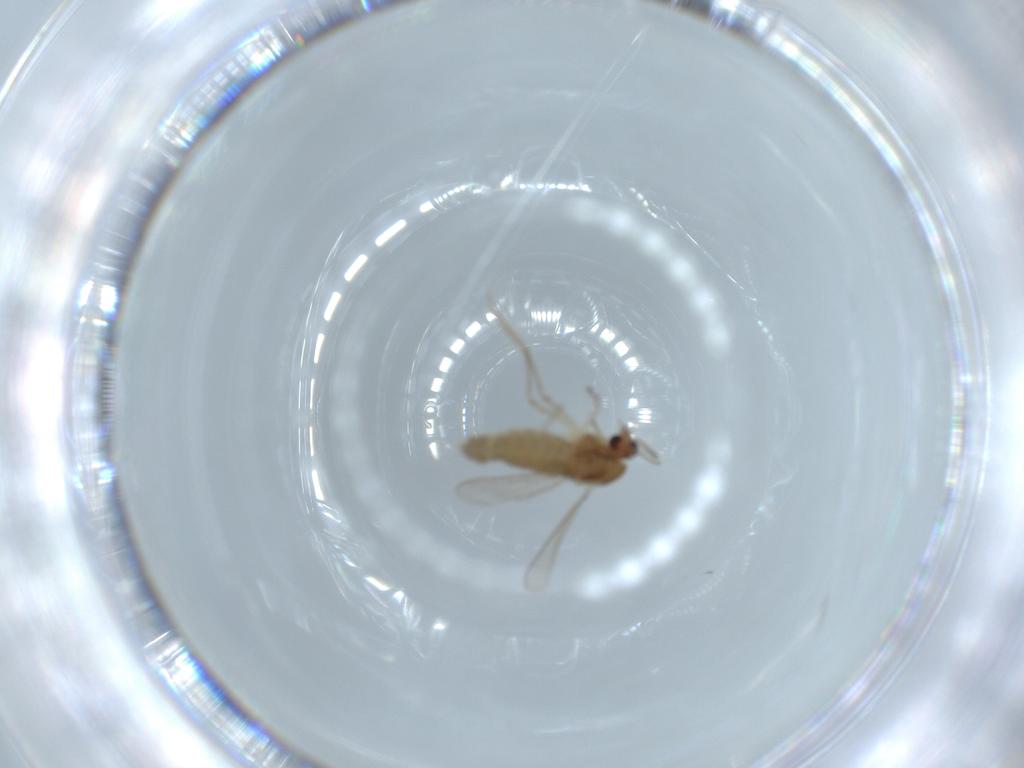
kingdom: Animalia
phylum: Arthropoda
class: Insecta
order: Diptera
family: Chironomidae
